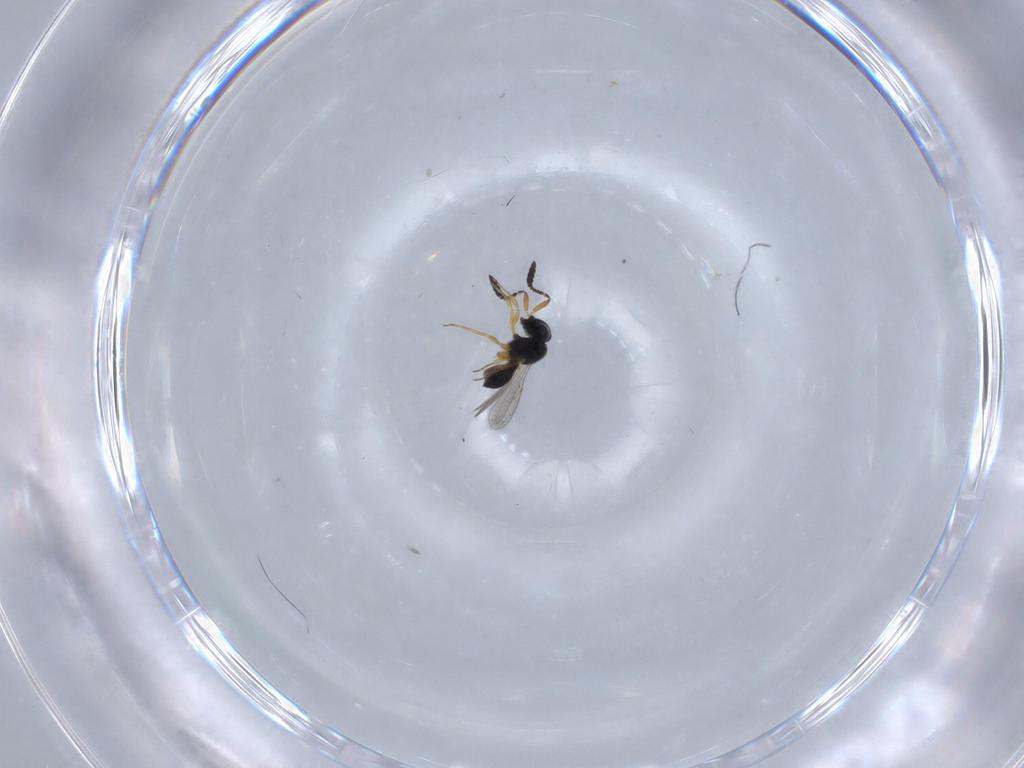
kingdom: Animalia
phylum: Arthropoda
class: Insecta
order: Hymenoptera
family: Scelionidae
